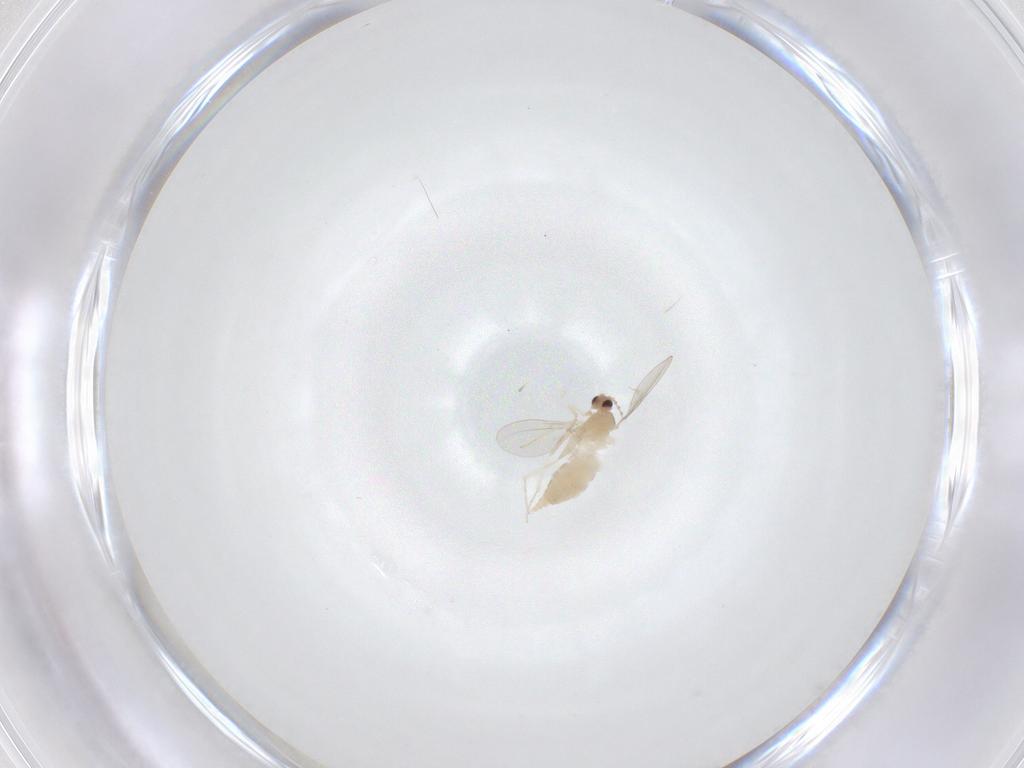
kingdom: Animalia
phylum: Arthropoda
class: Insecta
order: Diptera
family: Cecidomyiidae
